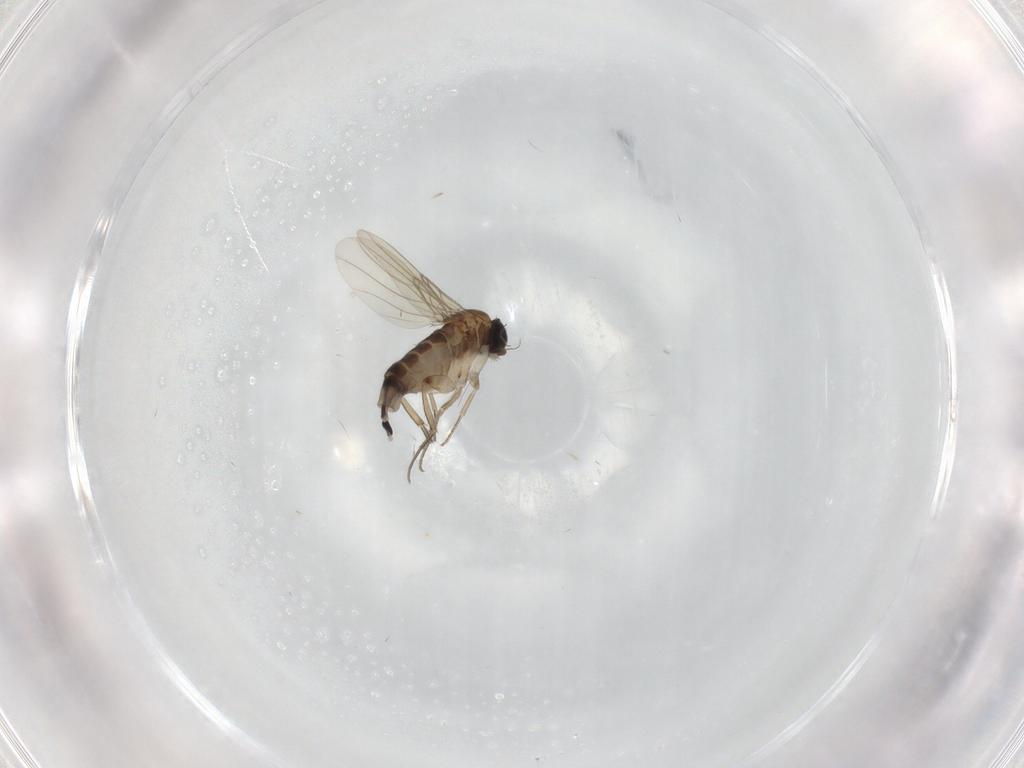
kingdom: Animalia
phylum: Arthropoda
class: Insecta
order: Diptera
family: Phoridae
